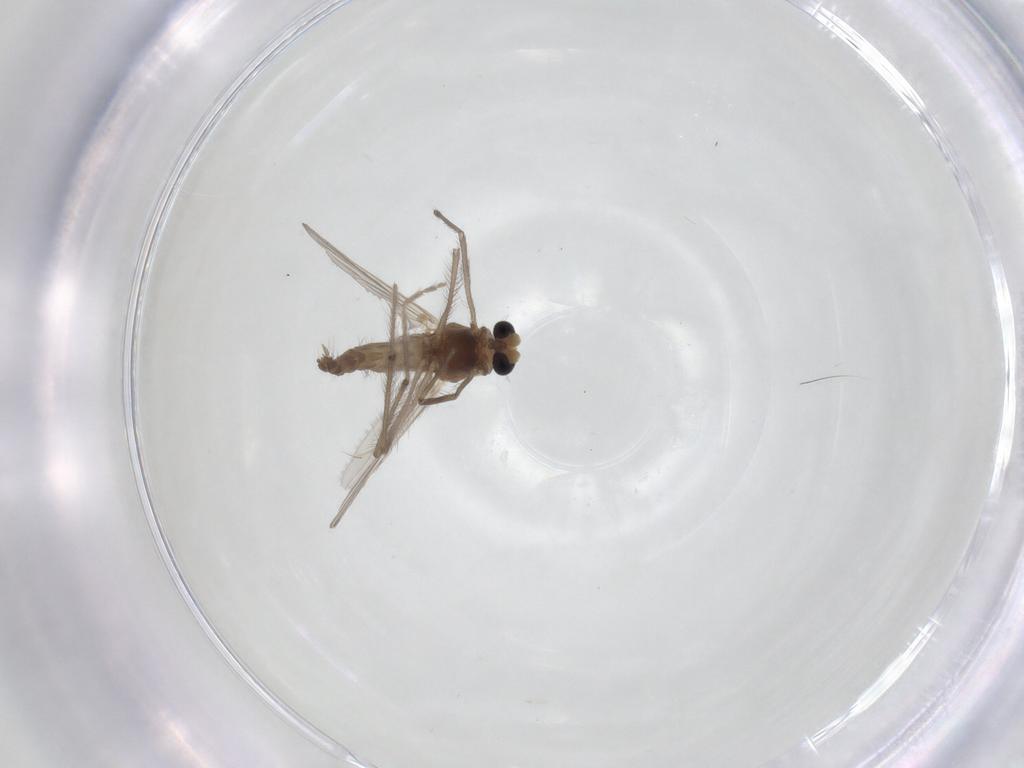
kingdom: Animalia
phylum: Arthropoda
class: Insecta
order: Diptera
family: Chironomidae
